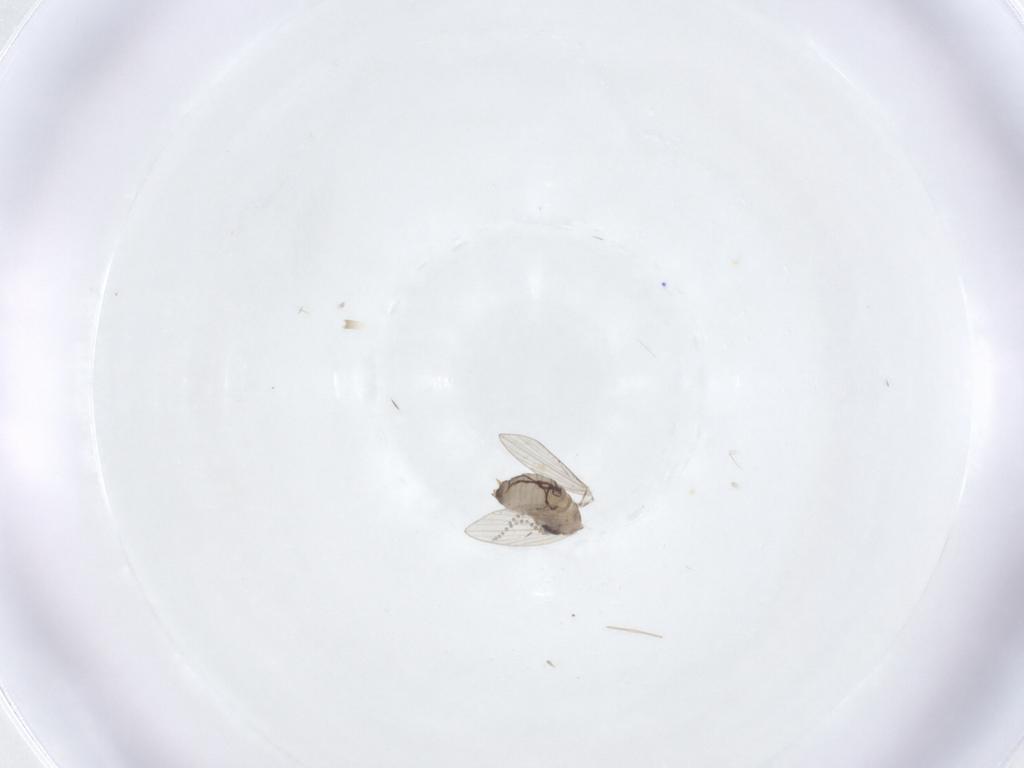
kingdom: Animalia
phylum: Arthropoda
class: Insecta
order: Diptera
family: Psychodidae
